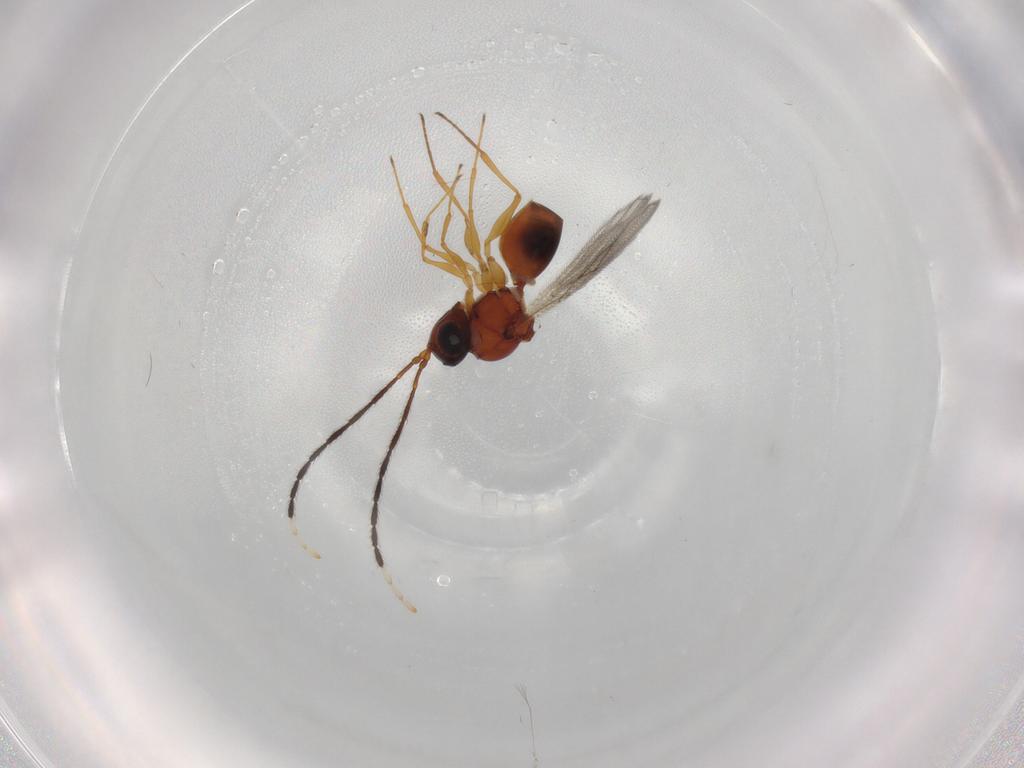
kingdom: Animalia
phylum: Arthropoda
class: Insecta
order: Hymenoptera
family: Figitidae
